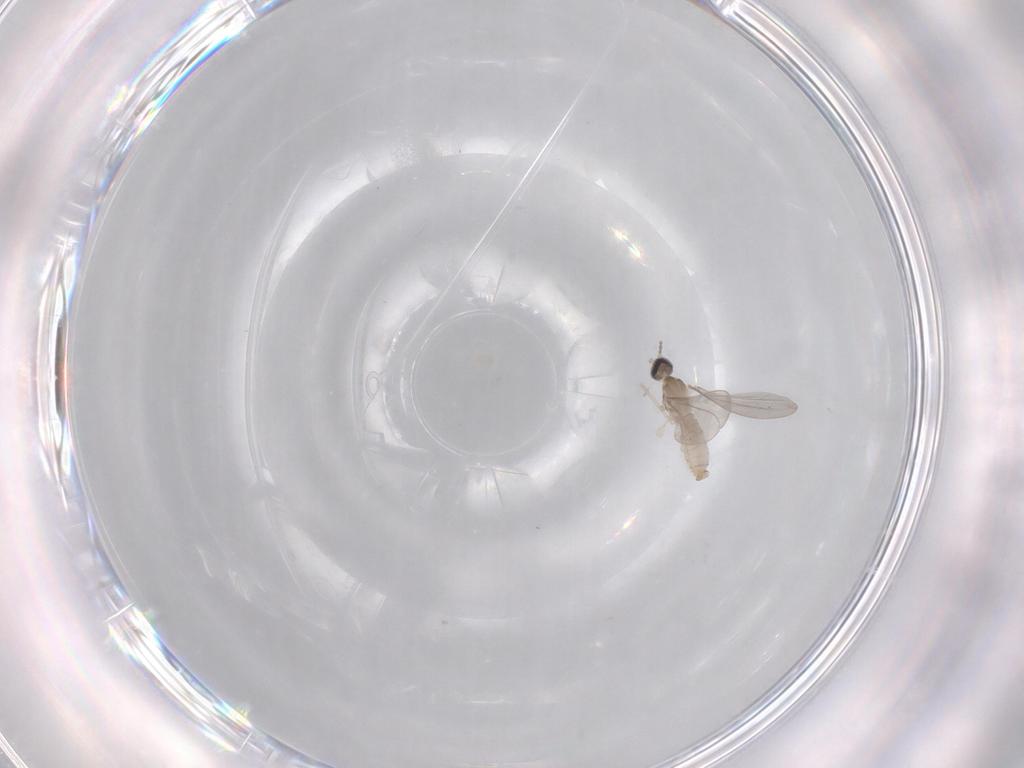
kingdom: Animalia
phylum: Arthropoda
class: Insecta
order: Diptera
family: Cecidomyiidae
